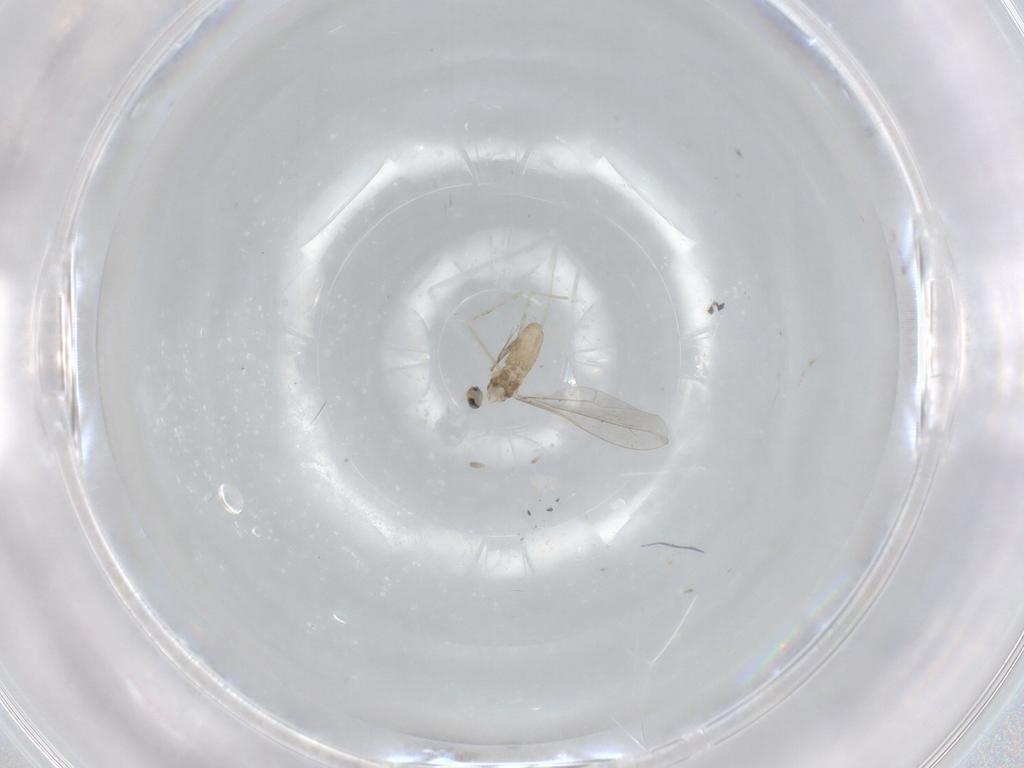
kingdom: Animalia
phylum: Arthropoda
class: Insecta
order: Diptera
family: Cecidomyiidae
